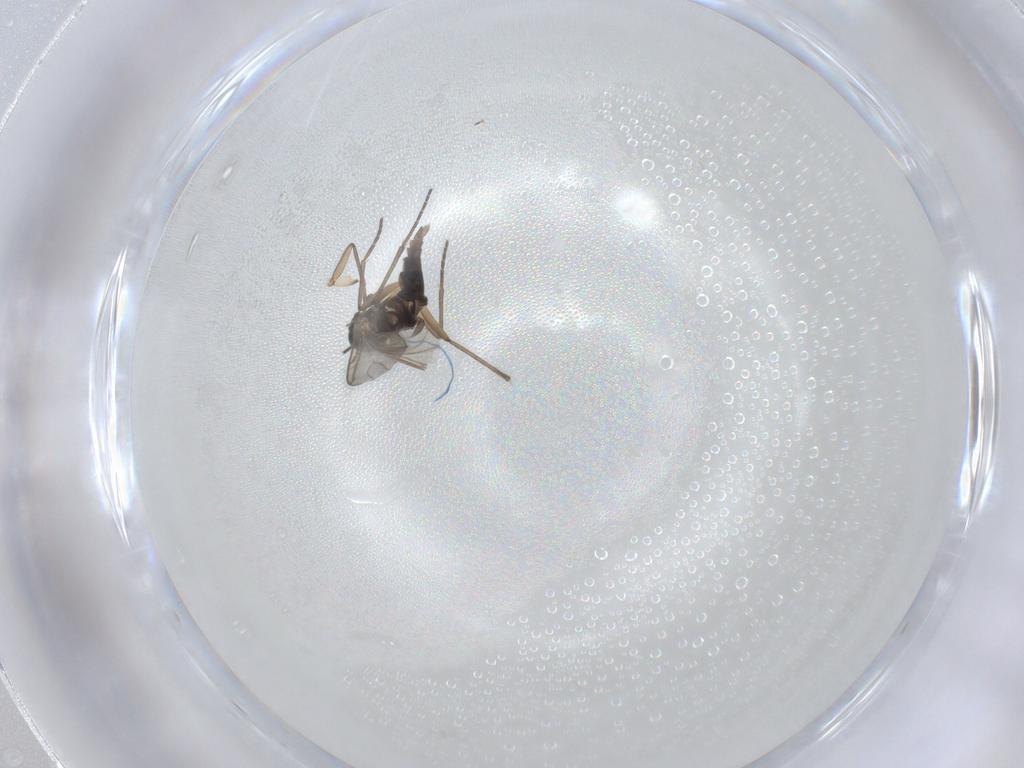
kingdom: Animalia
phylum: Arthropoda
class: Insecta
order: Diptera
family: Sciaridae
